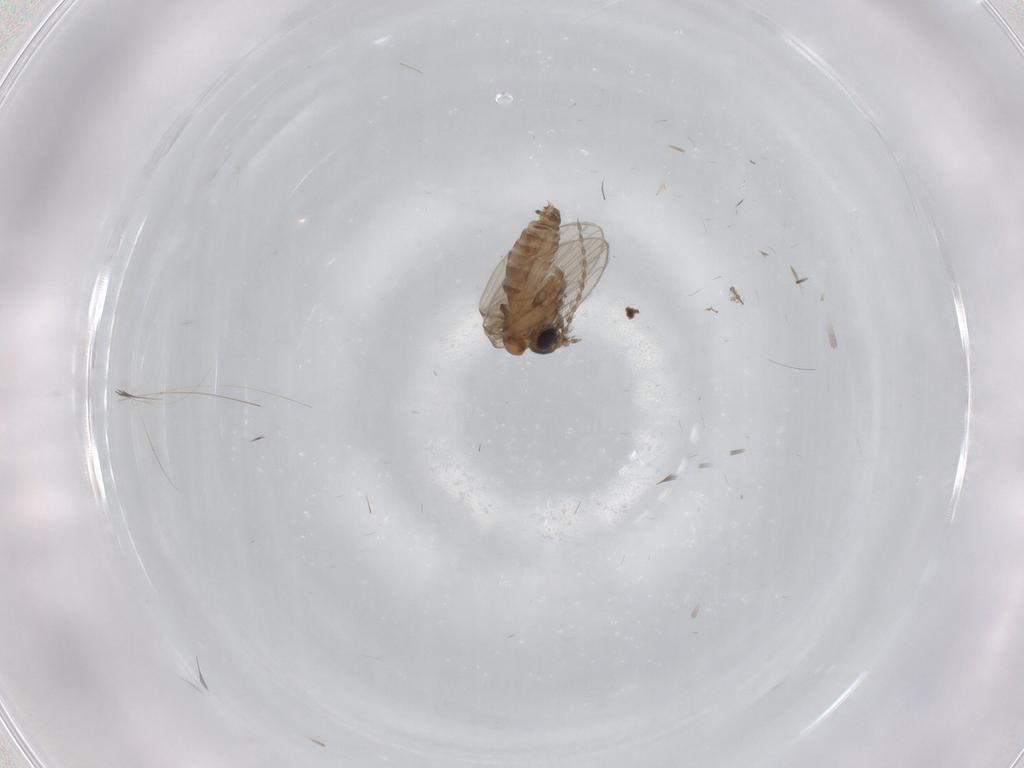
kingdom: Animalia
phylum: Arthropoda
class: Insecta
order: Diptera
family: Psychodidae
